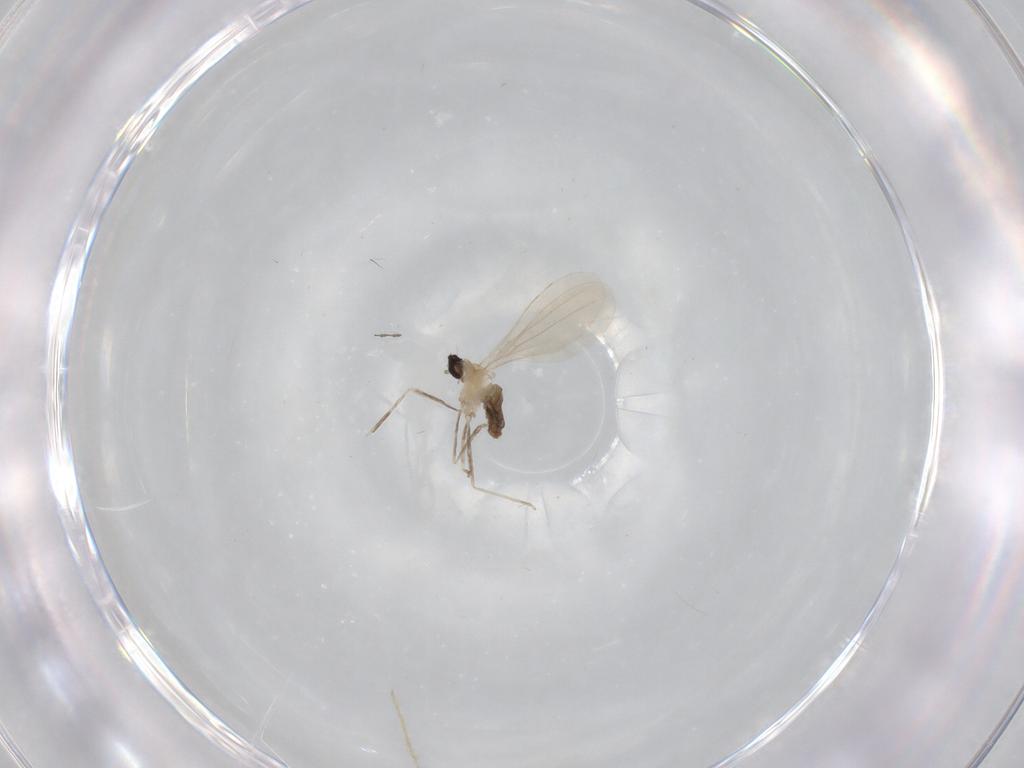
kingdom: Animalia
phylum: Arthropoda
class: Insecta
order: Diptera
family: Cecidomyiidae
